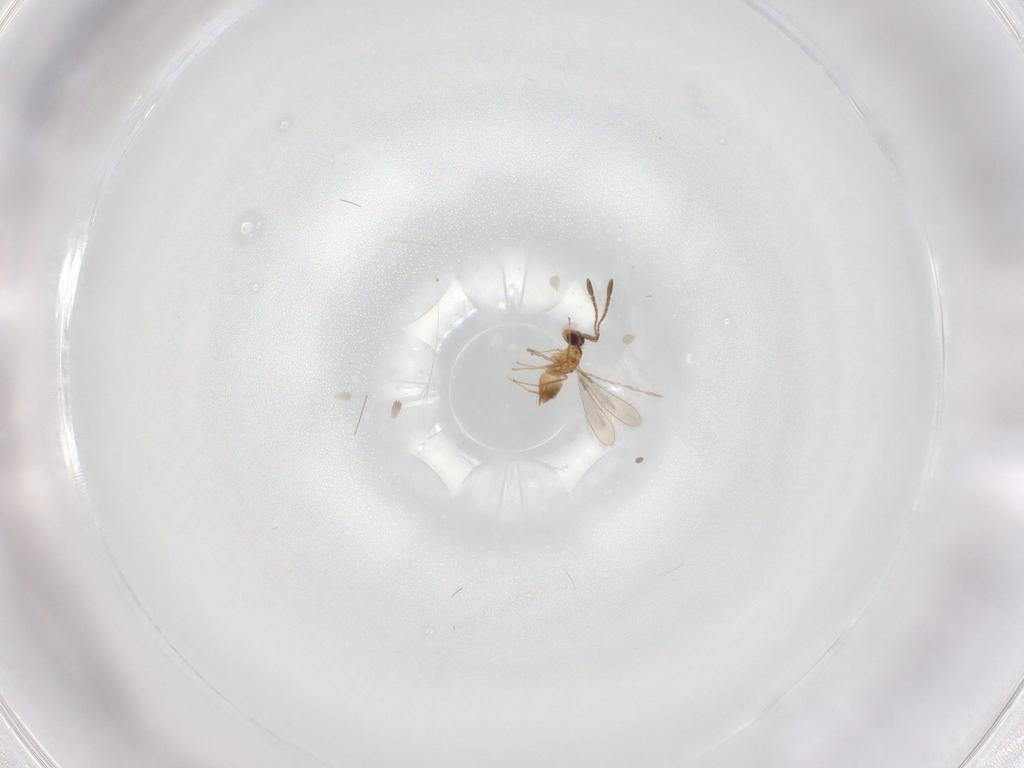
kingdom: Animalia
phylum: Arthropoda
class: Insecta
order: Hymenoptera
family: Mymaridae
